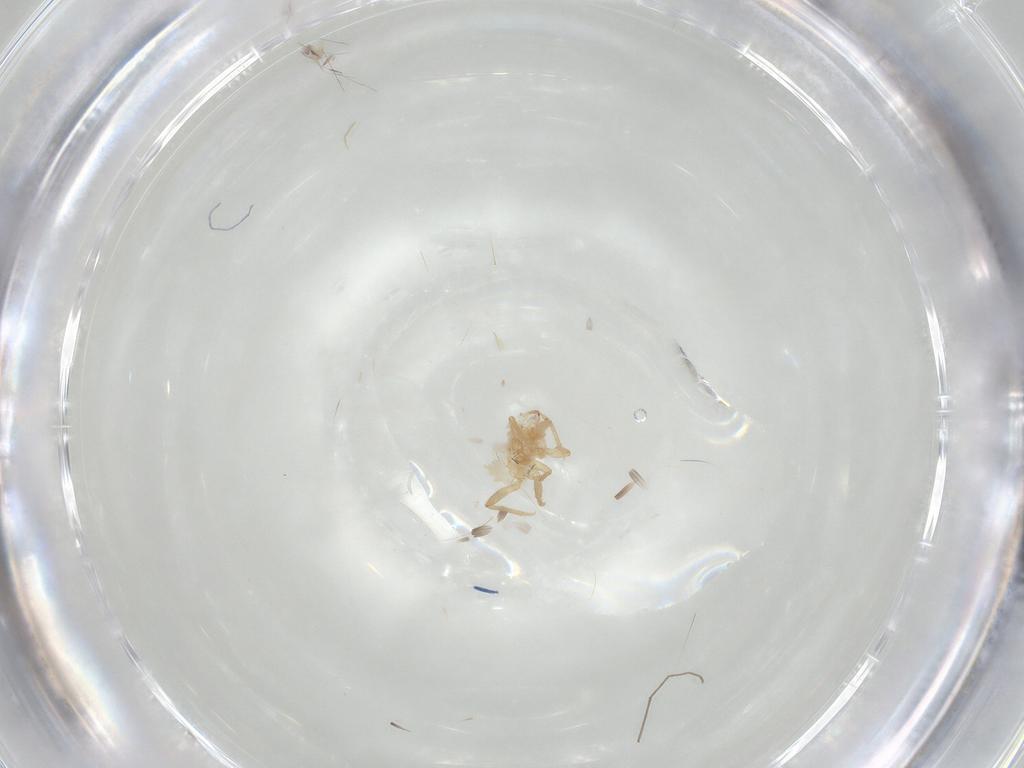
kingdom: Animalia
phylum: Arthropoda
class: Insecta
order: Diptera
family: Chironomidae
